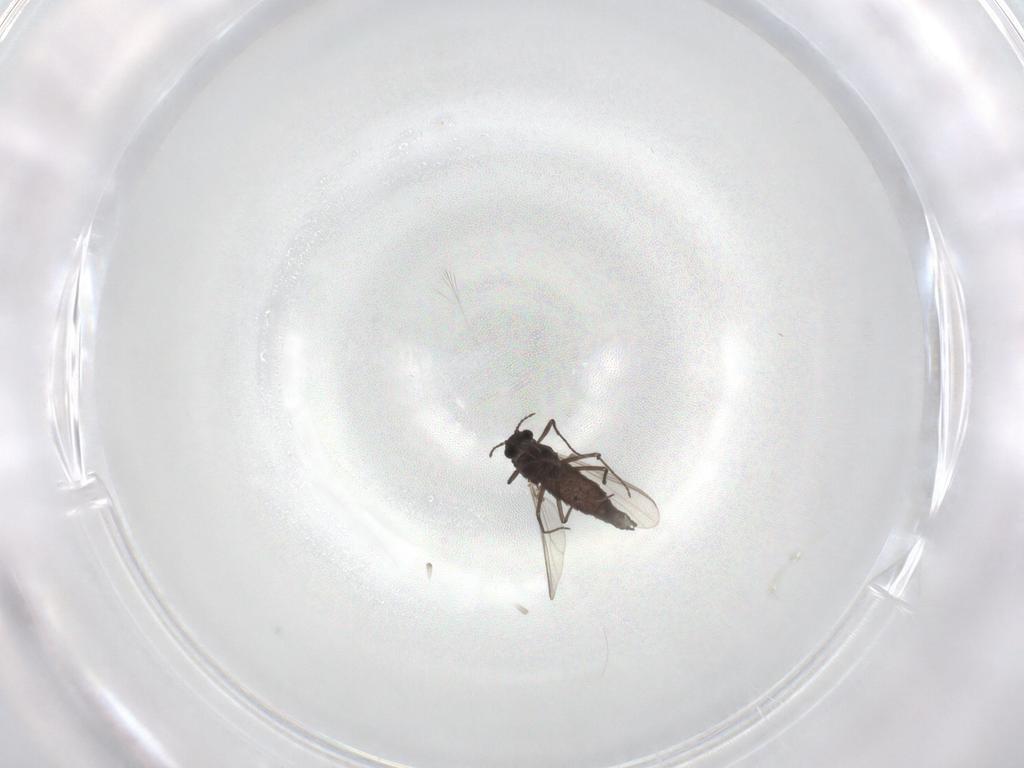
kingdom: Animalia
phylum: Arthropoda
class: Insecta
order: Diptera
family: Chironomidae
